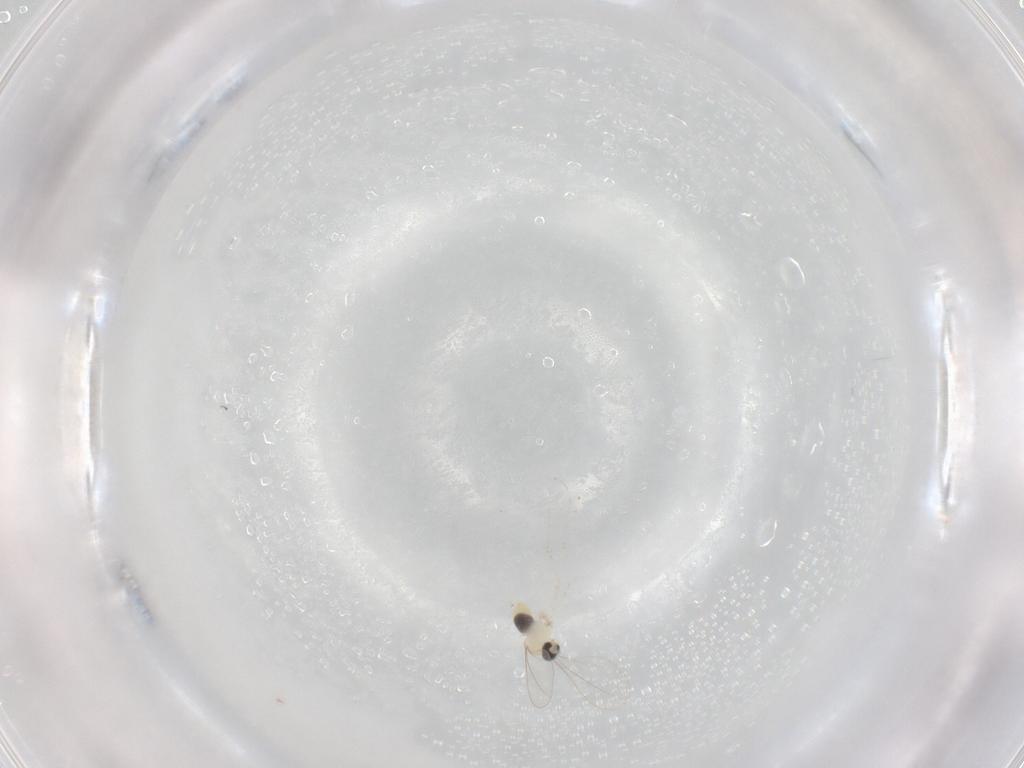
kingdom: Animalia
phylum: Arthropoda
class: Insecta
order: Diptera
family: Cecidomyiidae
